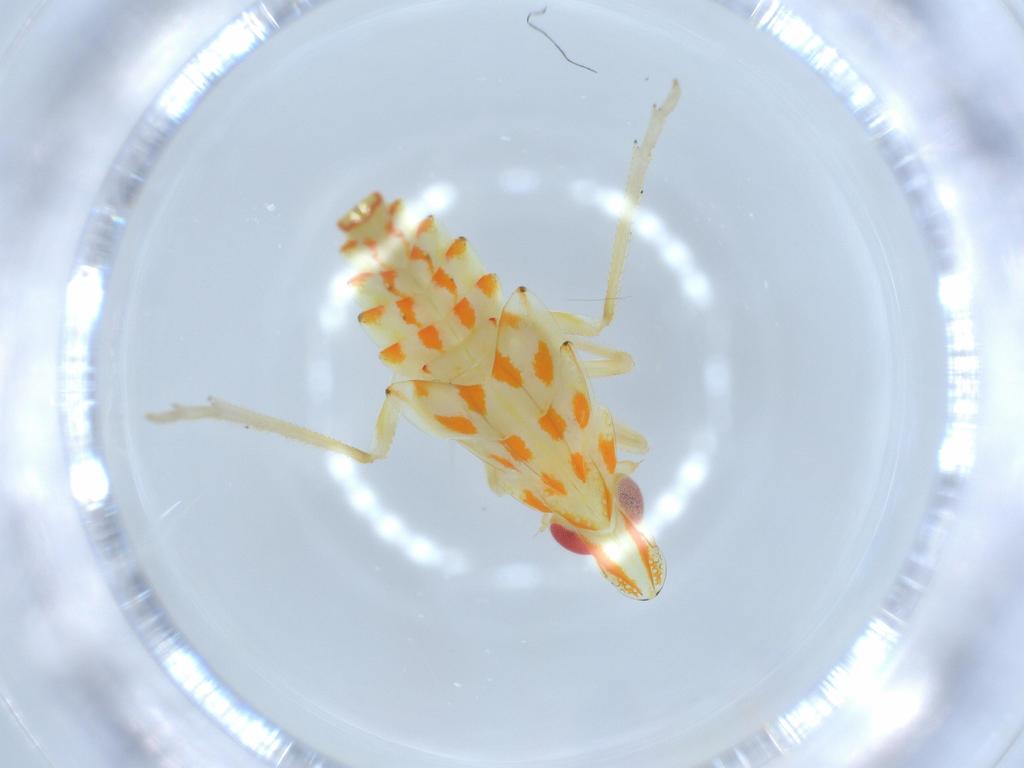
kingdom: Animalia
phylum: Arthropoda
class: Insecta
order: Hemiptera
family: Tropiduchidae
